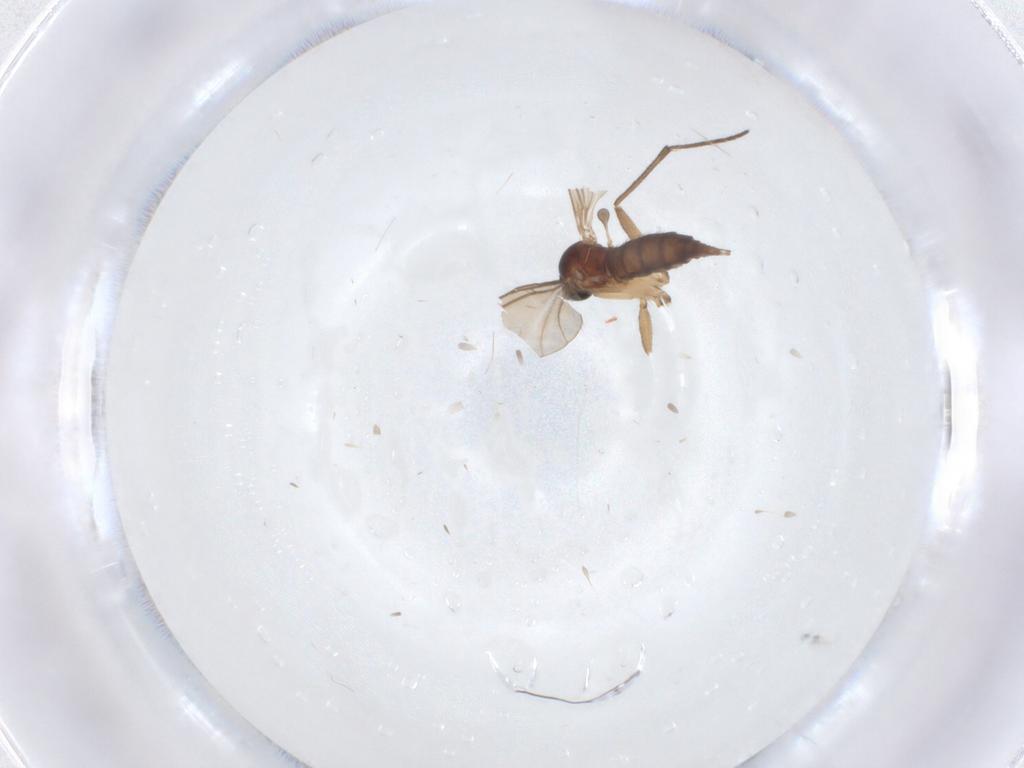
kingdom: Animalia
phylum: Arthropoda
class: Insecta
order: Diptera
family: Sciaridae
